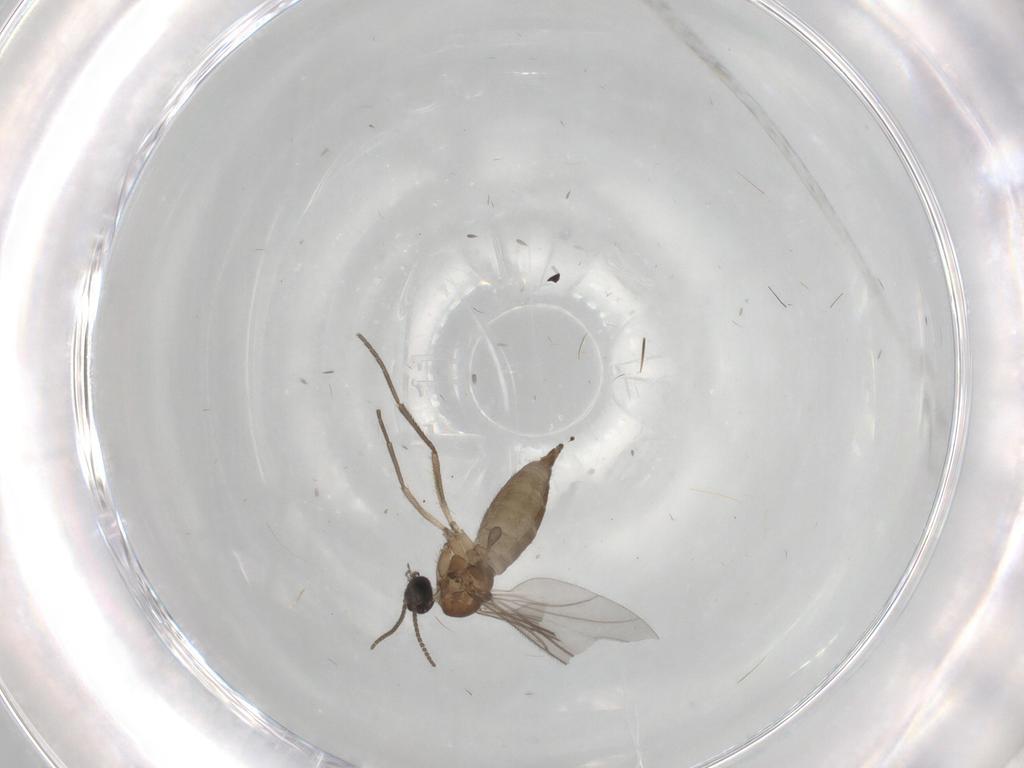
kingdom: Animalia
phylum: Arthropoda
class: Insecta
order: Diptera
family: Sciaridae
